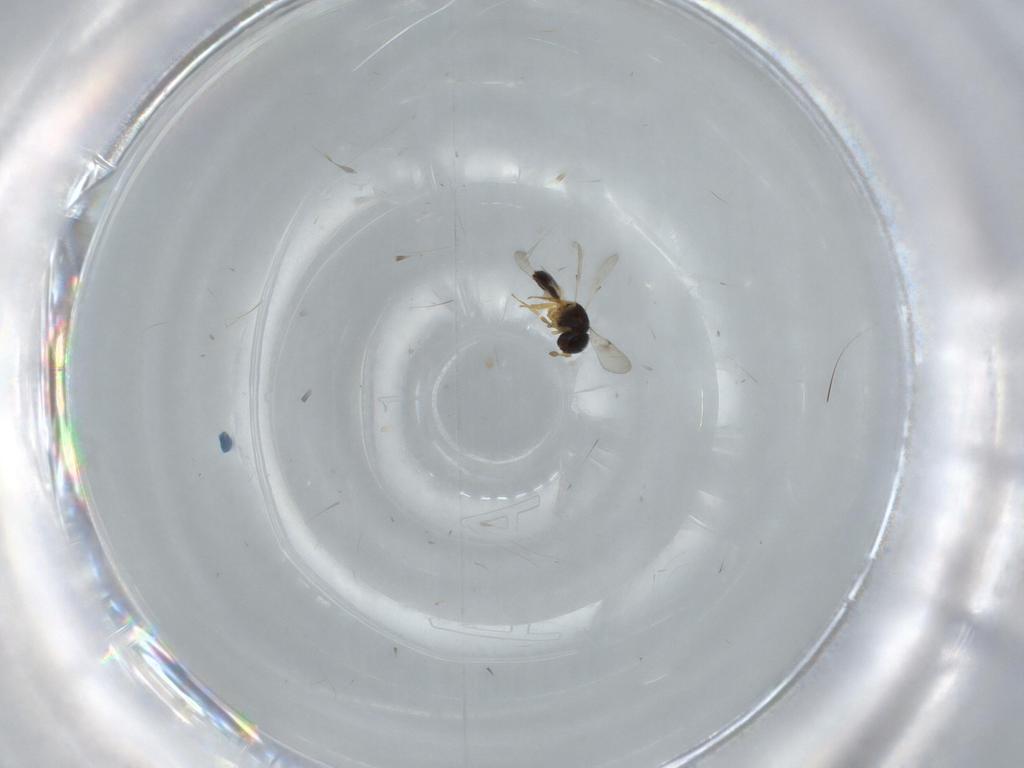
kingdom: Animalia
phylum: Arthropoda
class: Insecta
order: Hymenoptera
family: Scelionidae
